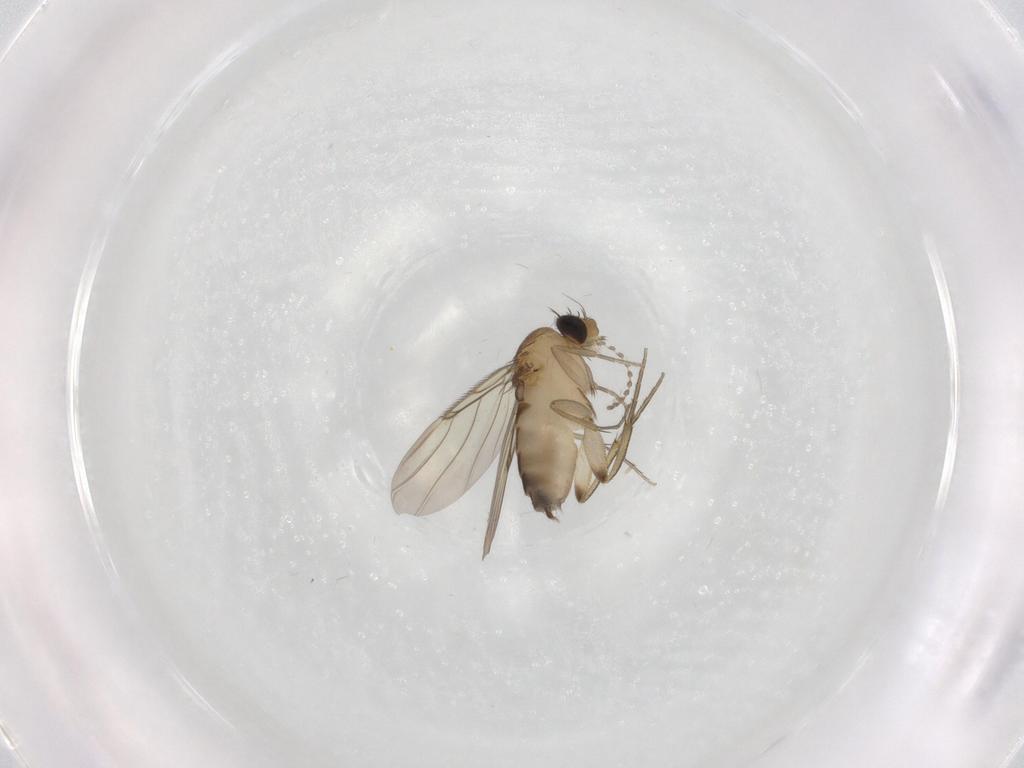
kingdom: Animalia
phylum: Arthropoda
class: Insecta
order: Diptera
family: Phoridae
